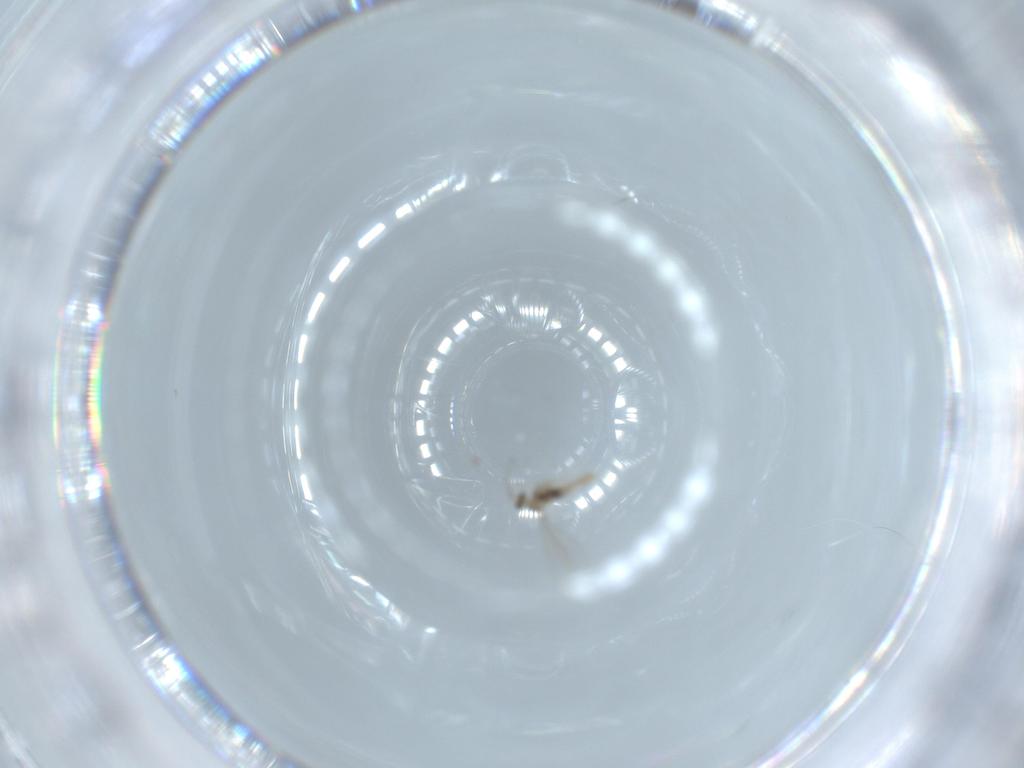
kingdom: Animalia
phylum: Arthropoda
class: Insecta
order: Diptera
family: Cecidomyiidae
